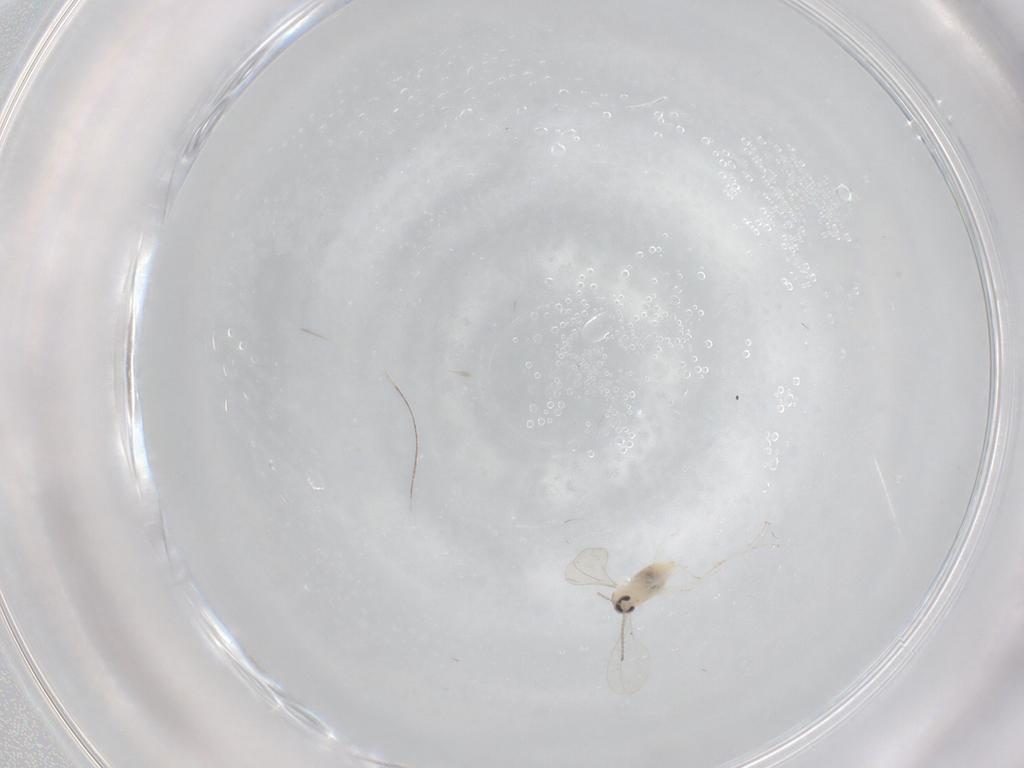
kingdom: Animalia
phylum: Arthropoda
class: Insecta
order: Diptera
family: Cecidomyiidae
